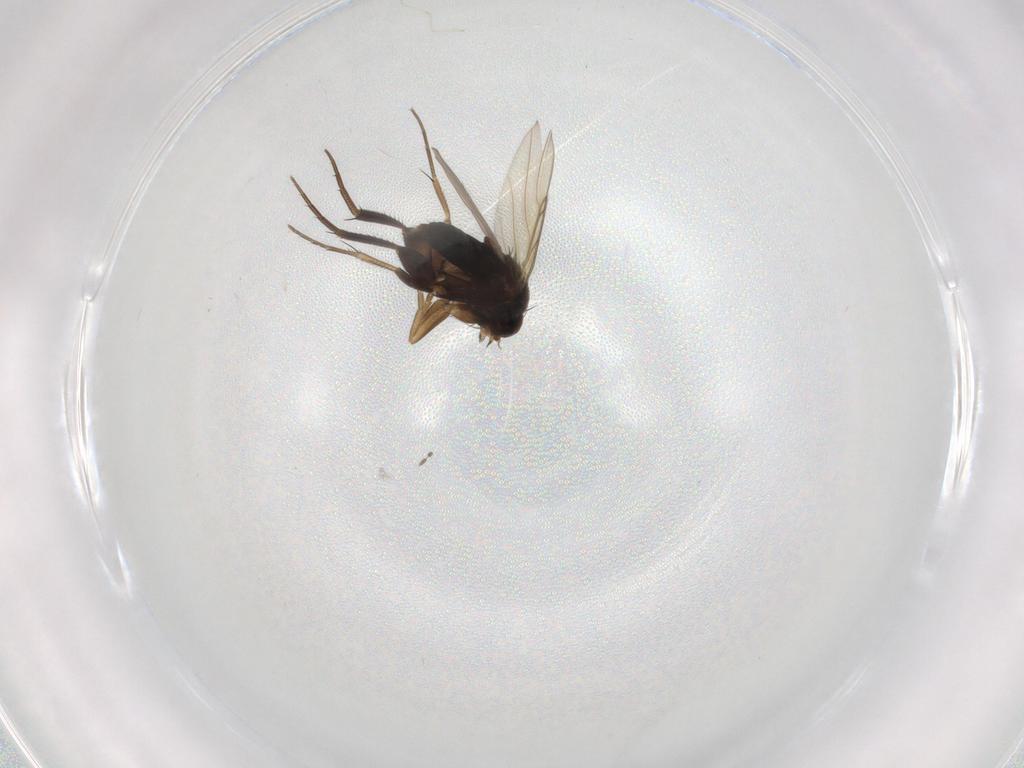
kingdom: Animalia
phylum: Arthropoda
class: Insecta
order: Diptera
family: Phoridae
